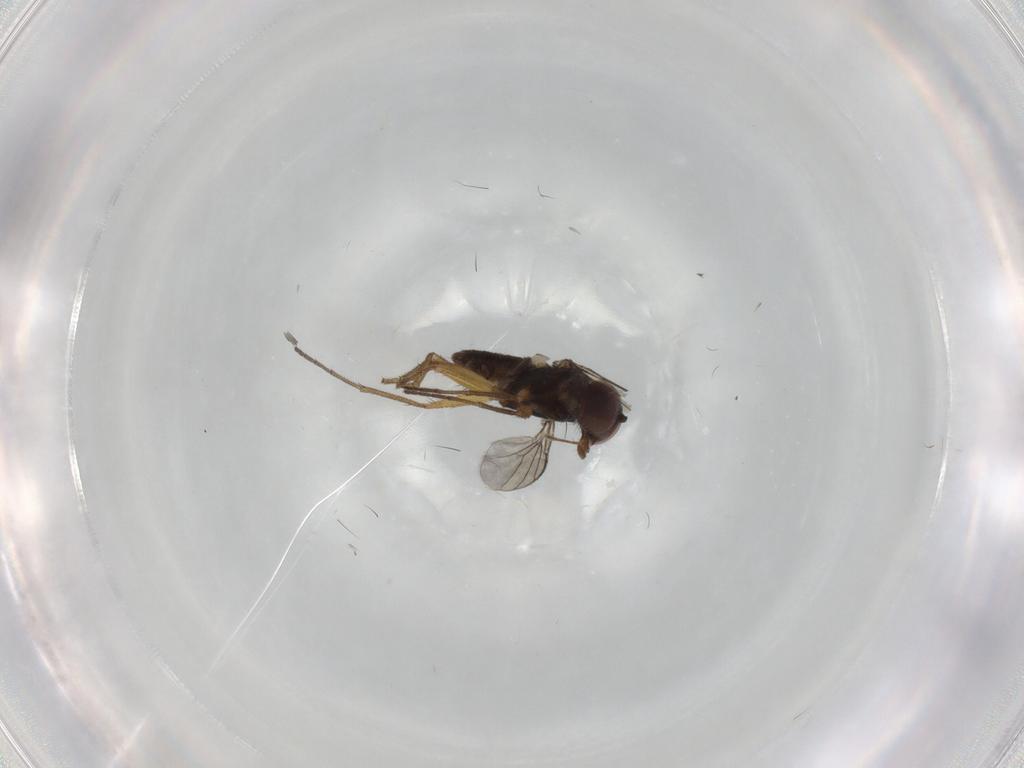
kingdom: Animalia
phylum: Arthropoda
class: Insecta
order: Diptera
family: Dolichopodidae
